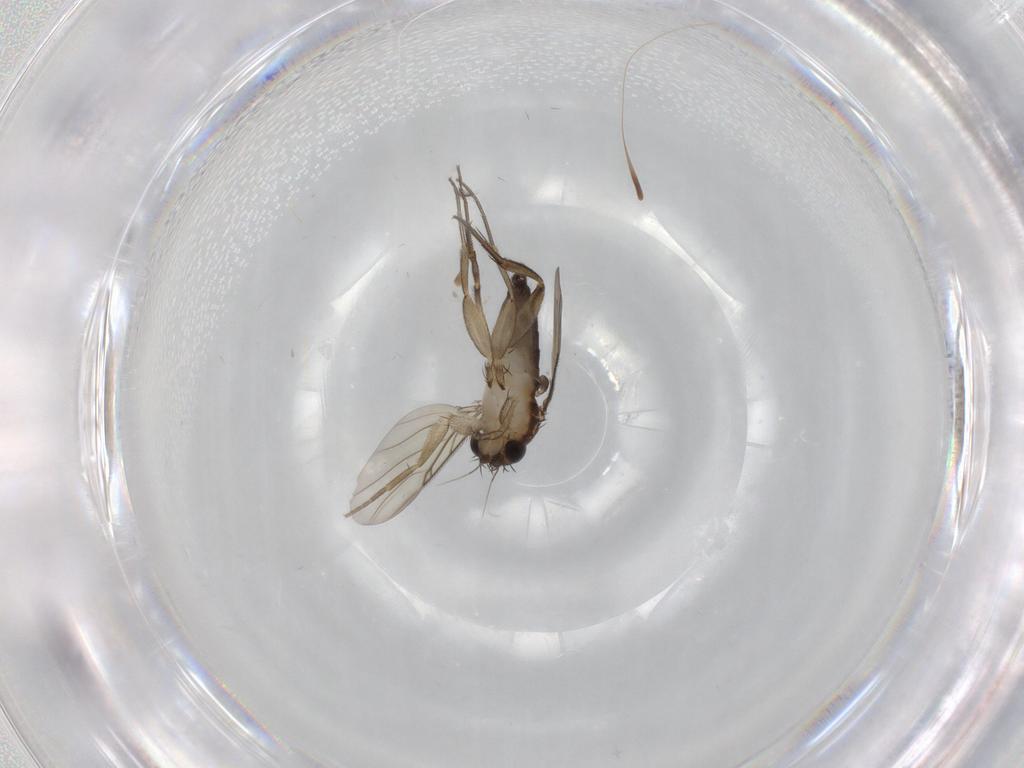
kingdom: Animalia
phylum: Arthropoda
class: Insecta
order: Diptera
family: Phoridae
